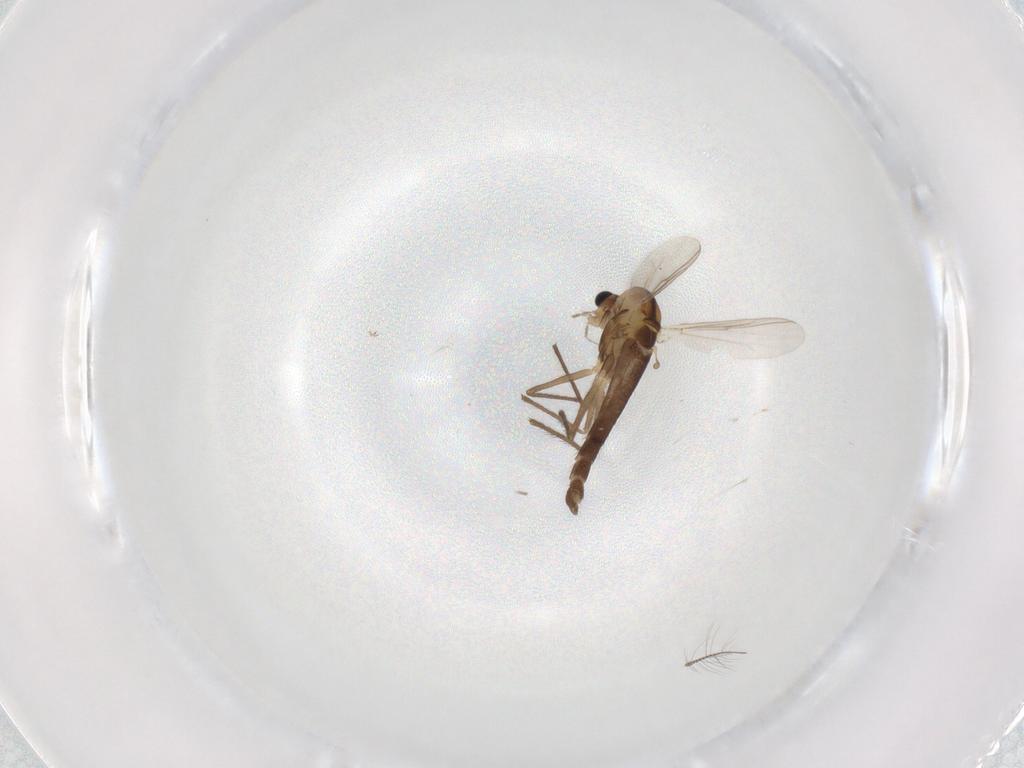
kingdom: Animalia
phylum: Arthropoda
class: Insecta
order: Diptera
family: Chironomidae
